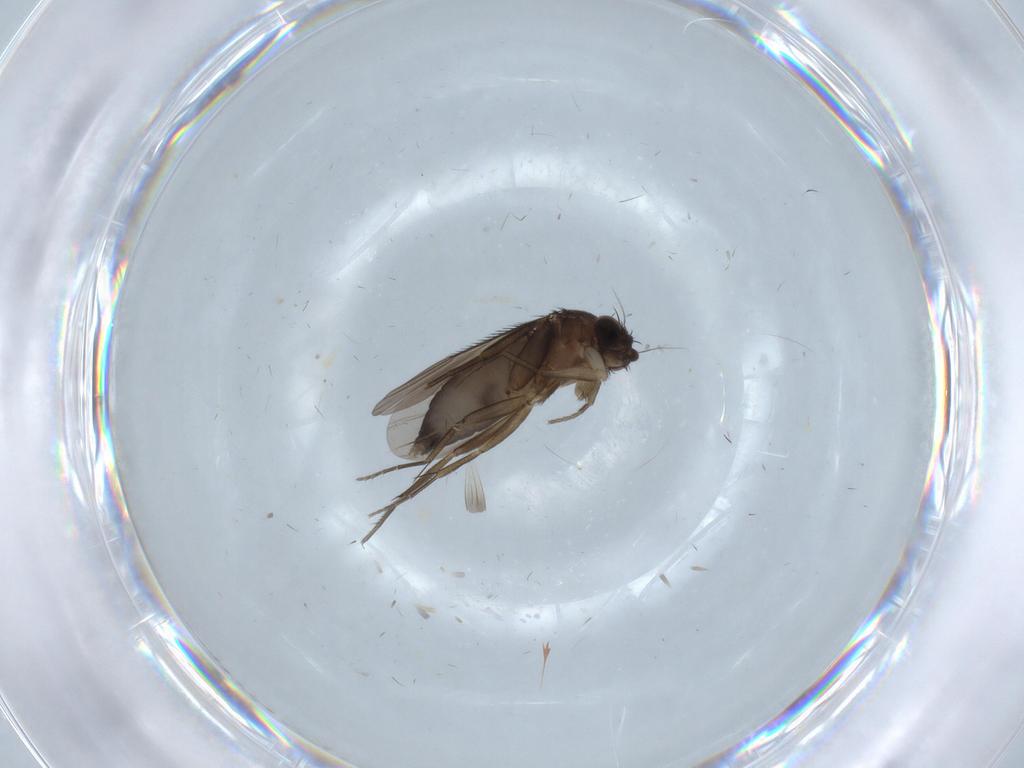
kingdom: Animalia
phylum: Arthropoda
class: Insecta
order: Diptera
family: Phoridae
